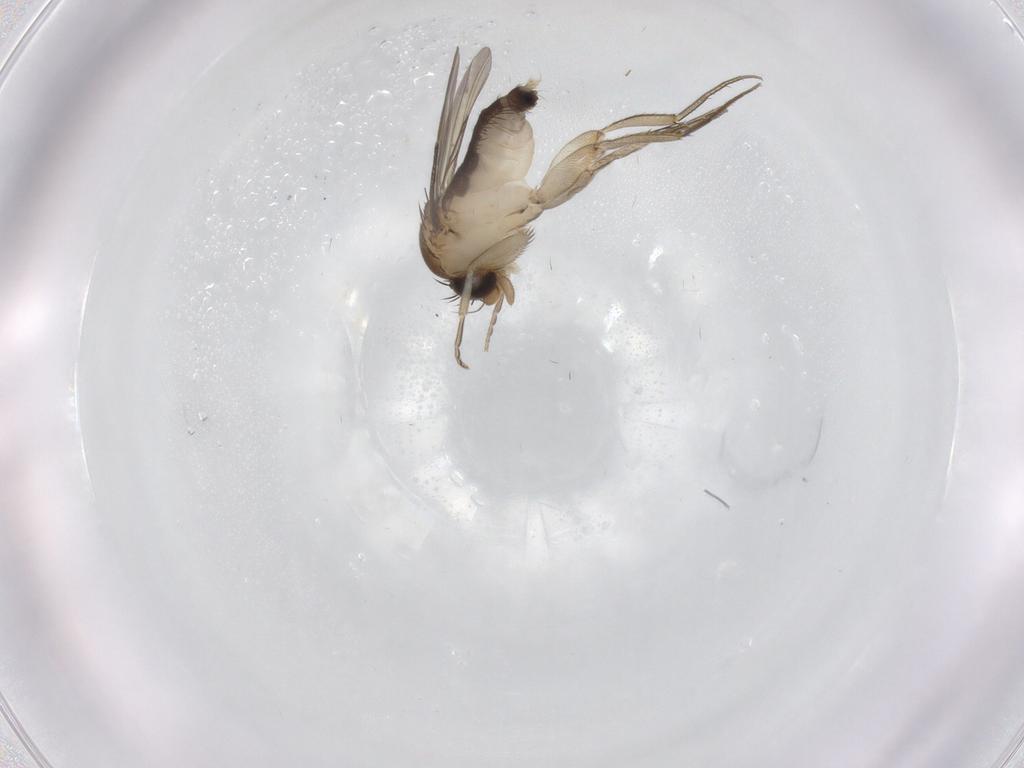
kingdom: Animalia
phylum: Arthropoda
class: Insecta
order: Diptera
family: Phoridae
